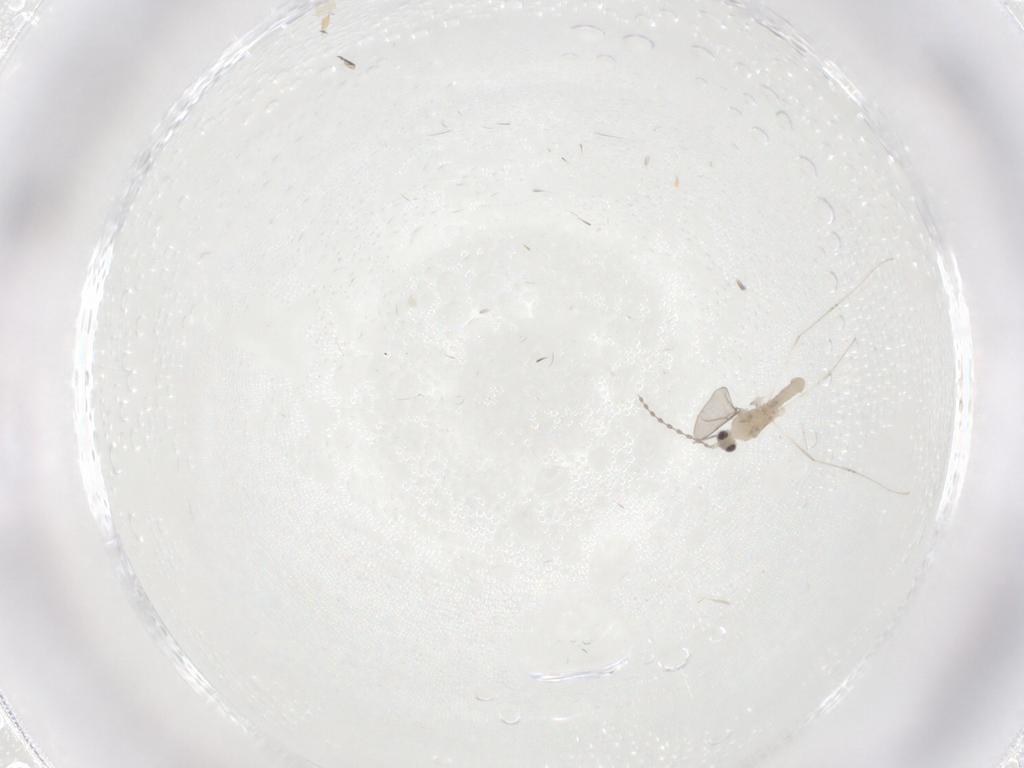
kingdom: Animalia
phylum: Arthropoda
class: Insecta
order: Diptera
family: Cecidomyiidae
